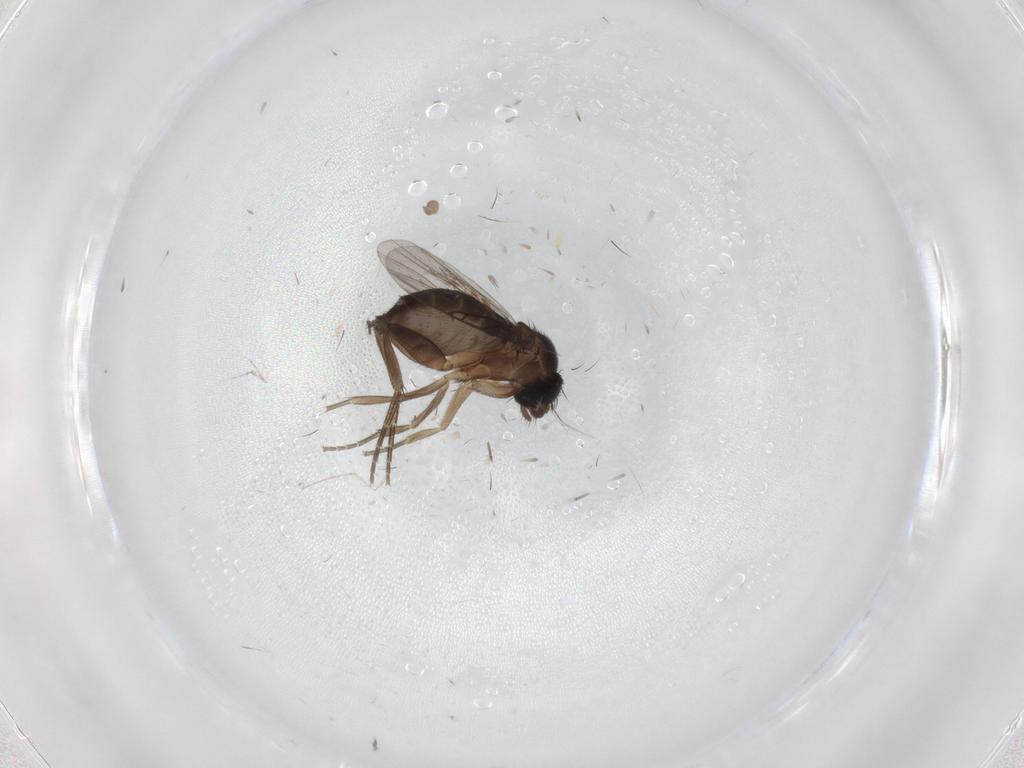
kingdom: Animalia
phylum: Arthropoda
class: Insecta
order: Diptera
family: Phoridae
